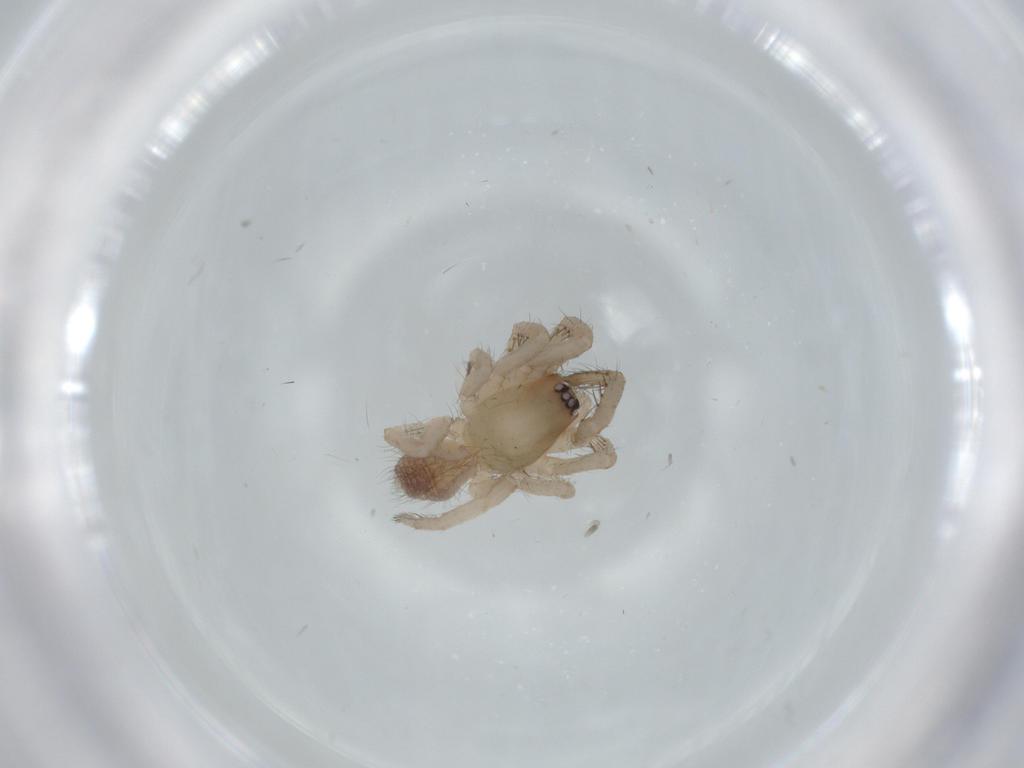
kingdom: Animalia
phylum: Arthropoda
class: Arachnida
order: Araneae
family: Segestriidae
